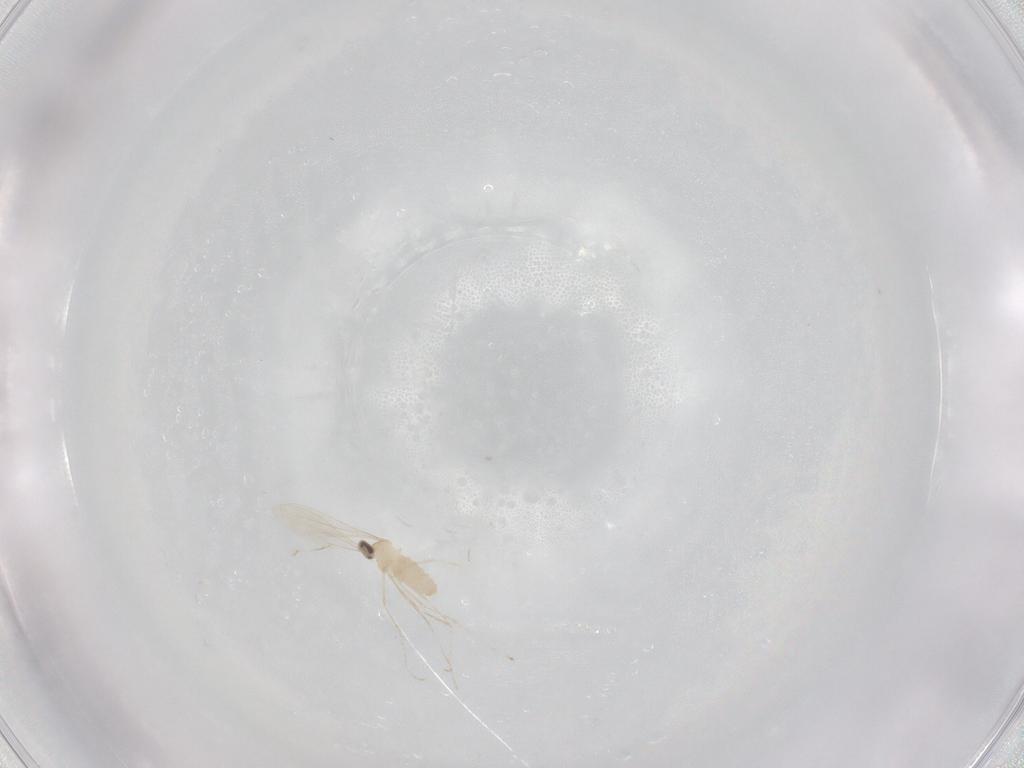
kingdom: Animalia
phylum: Arthropoda
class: Insecta
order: Diptera
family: Cecidomyiidae
